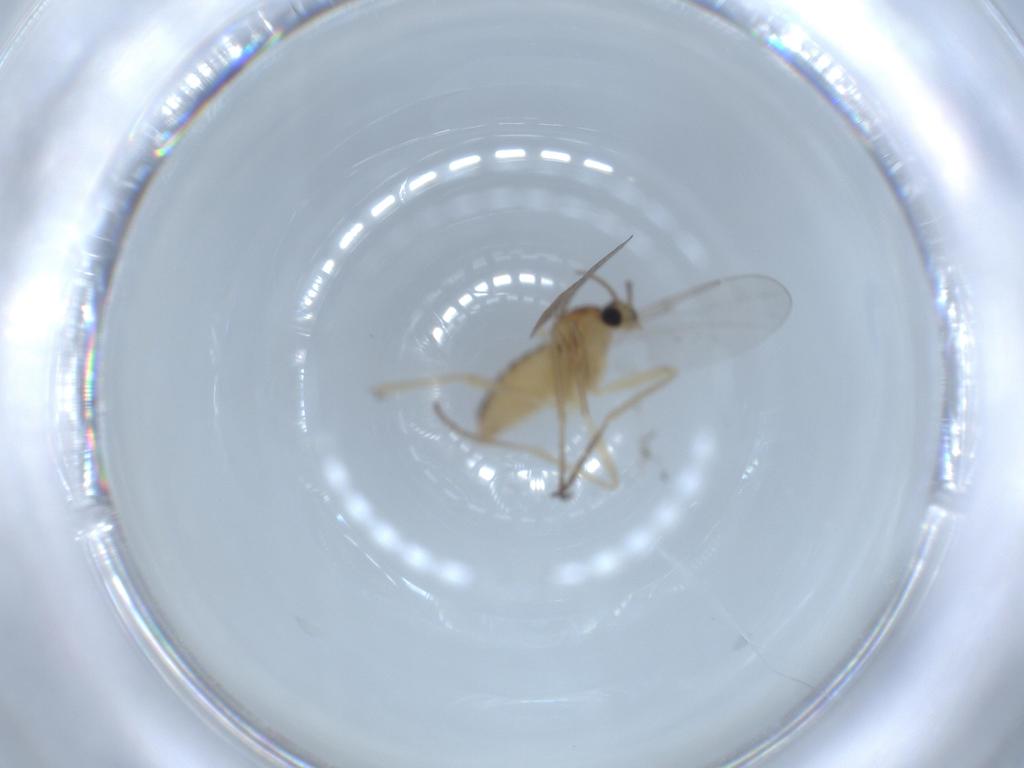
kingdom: Animalia
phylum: Arthropoda
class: Insecta
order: Diptera
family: Cecidomyiidae
